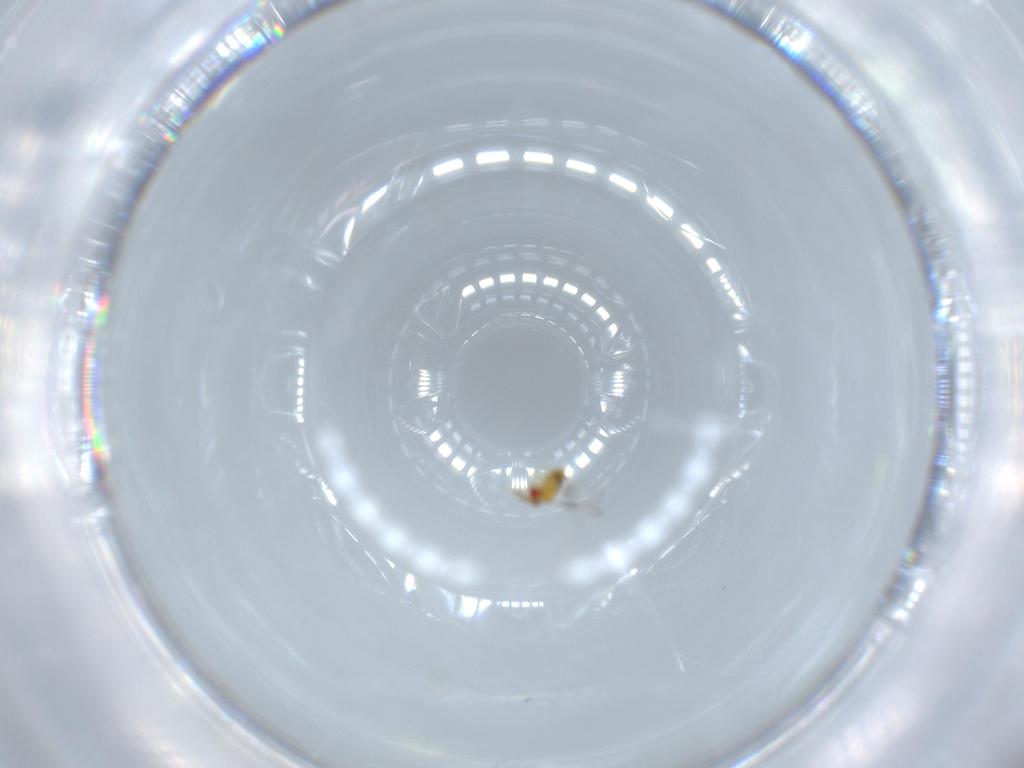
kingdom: Animalia
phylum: Arthropoda
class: Insecta
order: Hymenoptera
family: Trichogrammatidae
